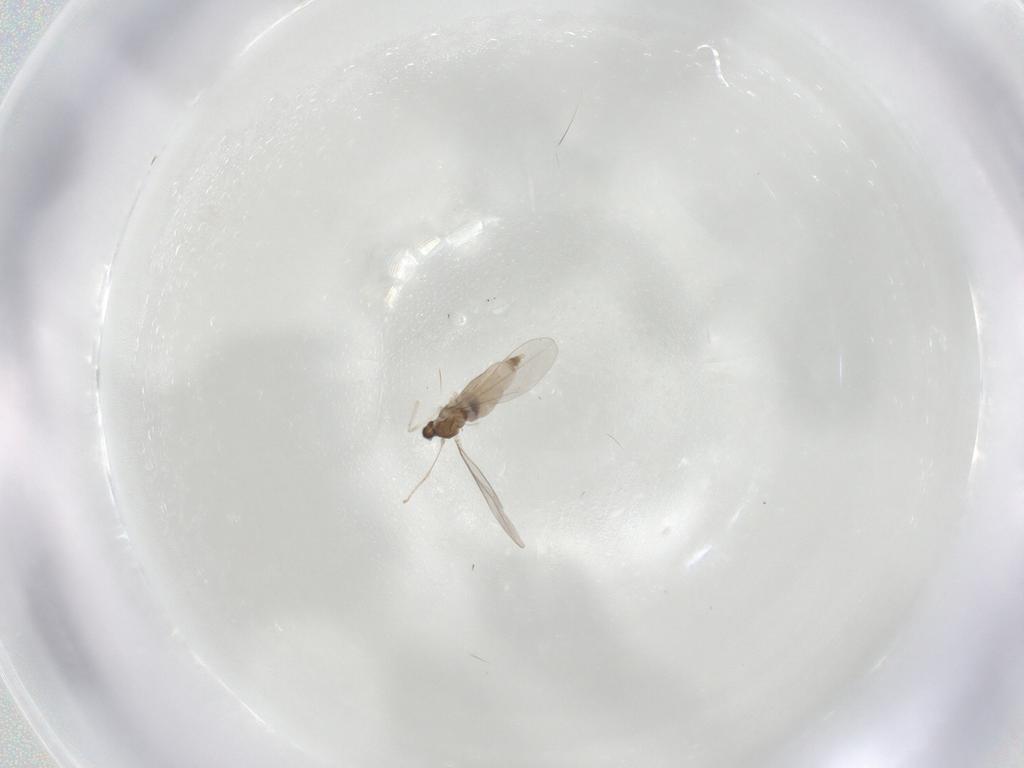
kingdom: Animalia
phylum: Arthropoda
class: Insecta
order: Diptera
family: Cecidomyiidae
